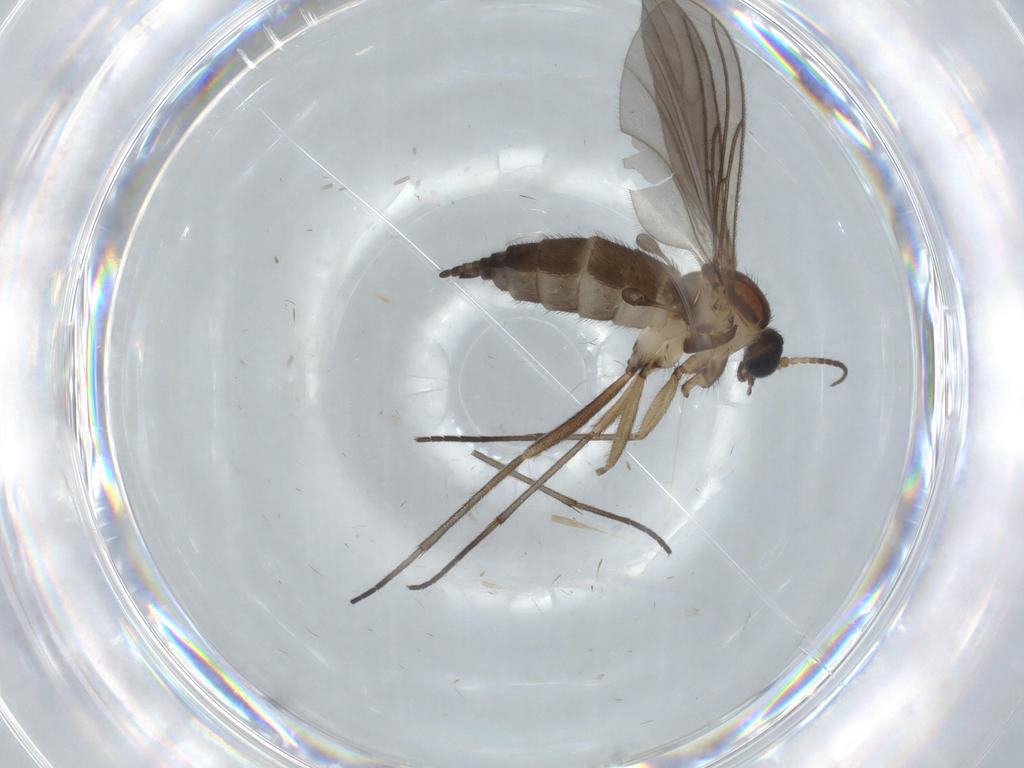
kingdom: Animalia
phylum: Arthropoda
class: Insecta
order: Diptera
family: Sciaridae
